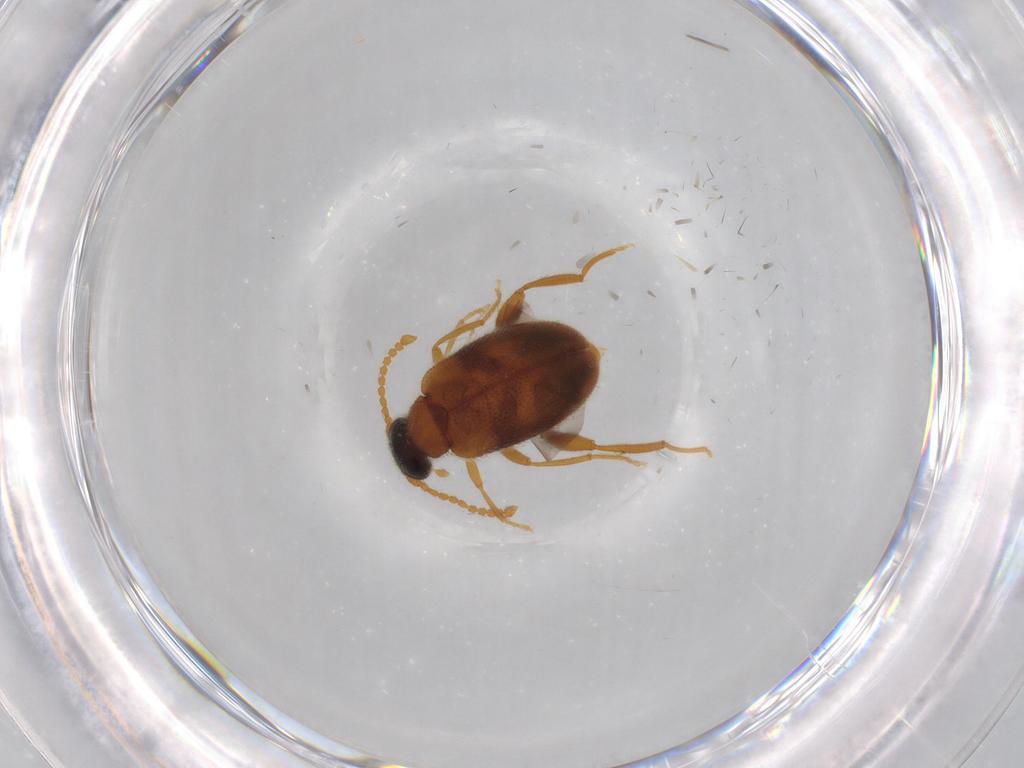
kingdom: Animalia
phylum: Arthropoda
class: Insecta
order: Coleoptera
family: Aderidae
